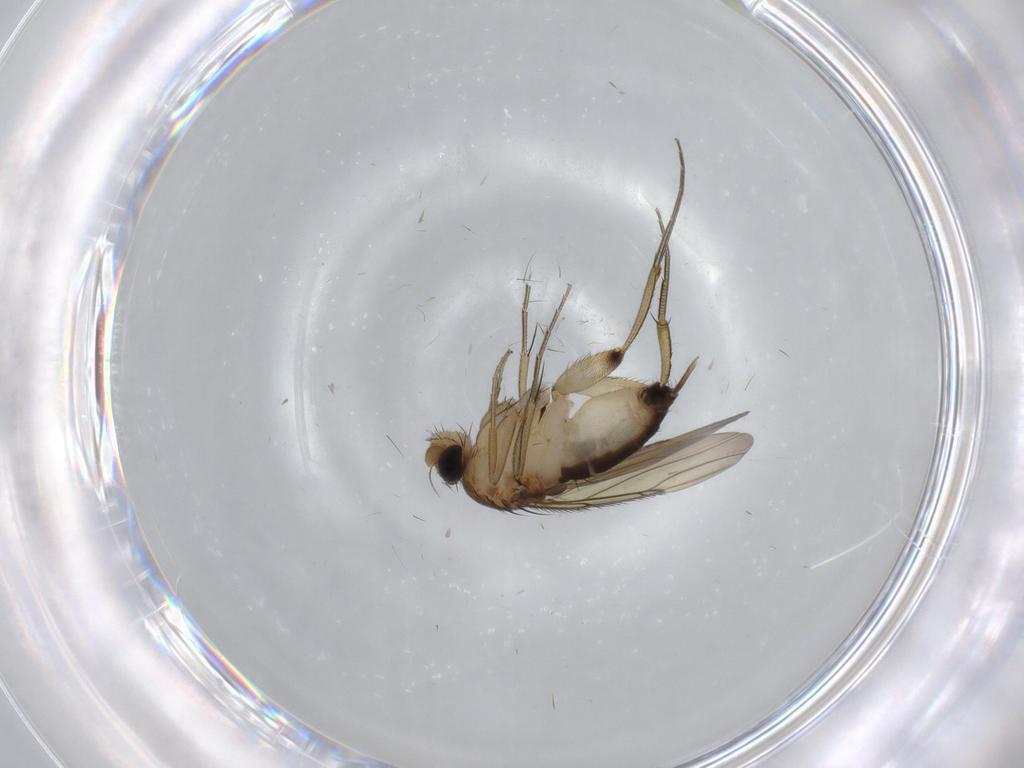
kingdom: Animalia
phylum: Arthropoda
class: Insecta
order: Diptera
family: Phoridae
